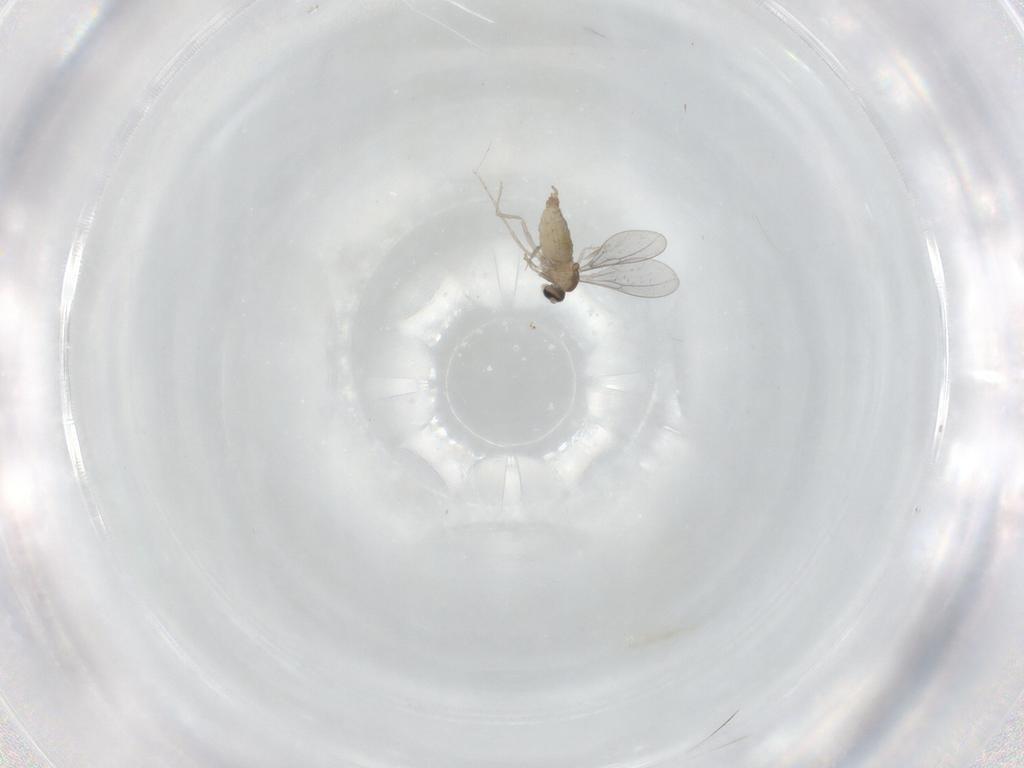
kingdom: Animalia
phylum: Arthropoda
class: Insecta
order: Diptera
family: Cecidomyiidae
